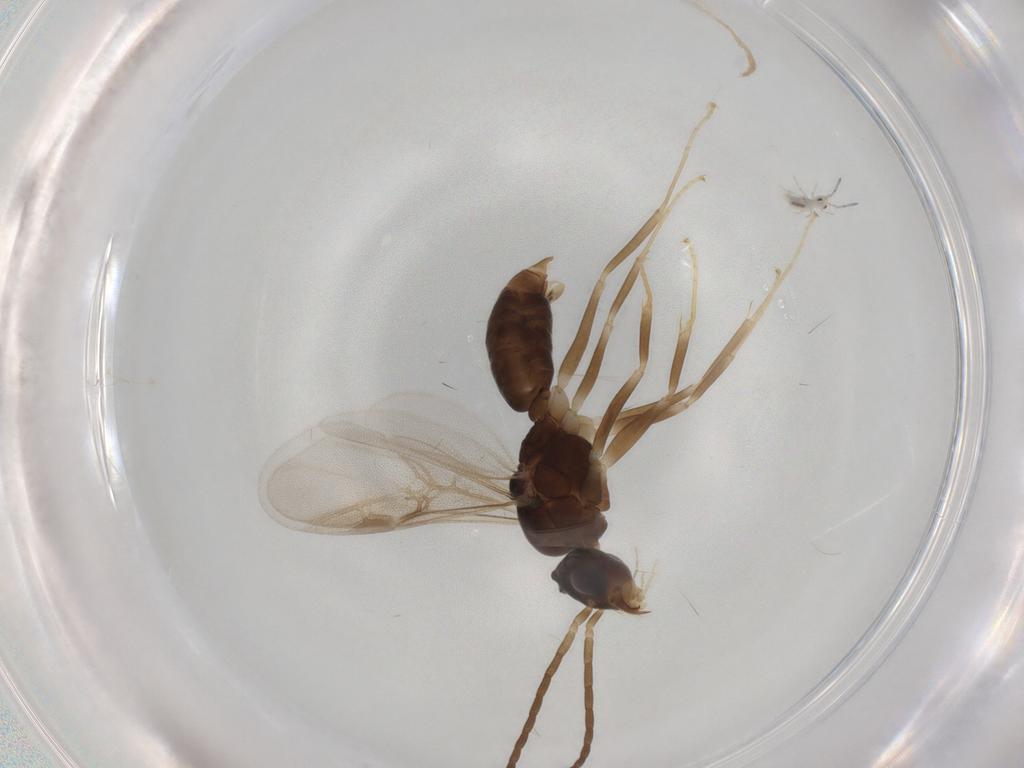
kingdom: Animalia
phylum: Arthropoda
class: Insecta
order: Hymenoptera
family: Formicidae
